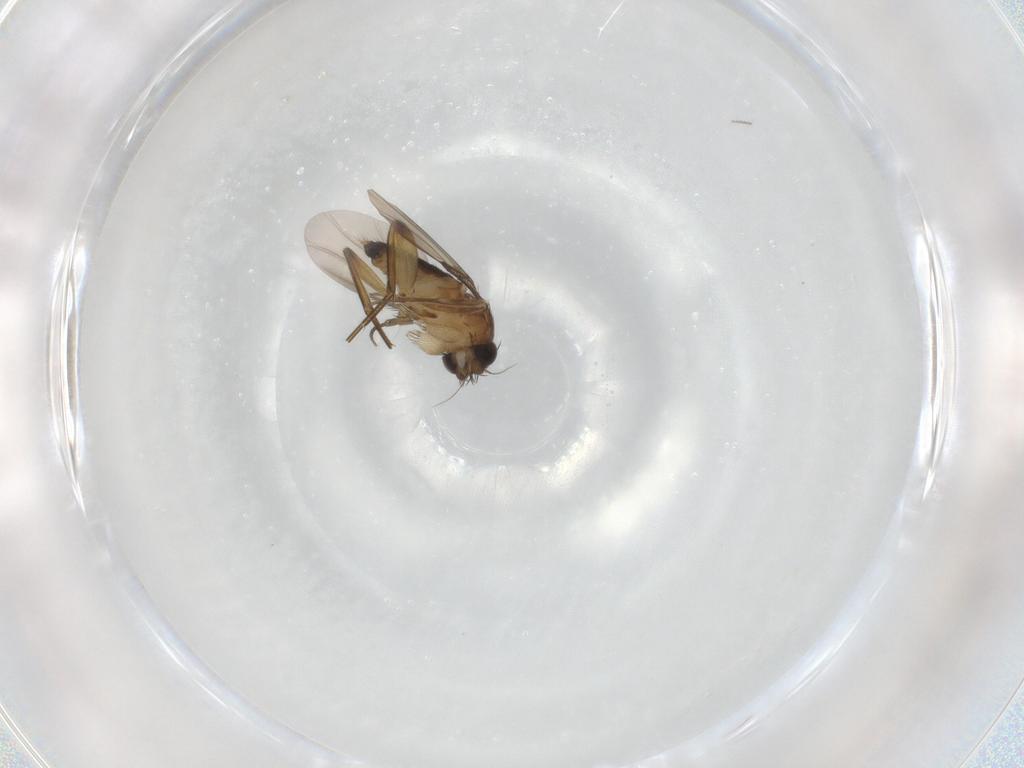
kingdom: Animalia
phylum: Arthropoda
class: Insecta
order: Diptera
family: Phoridae
